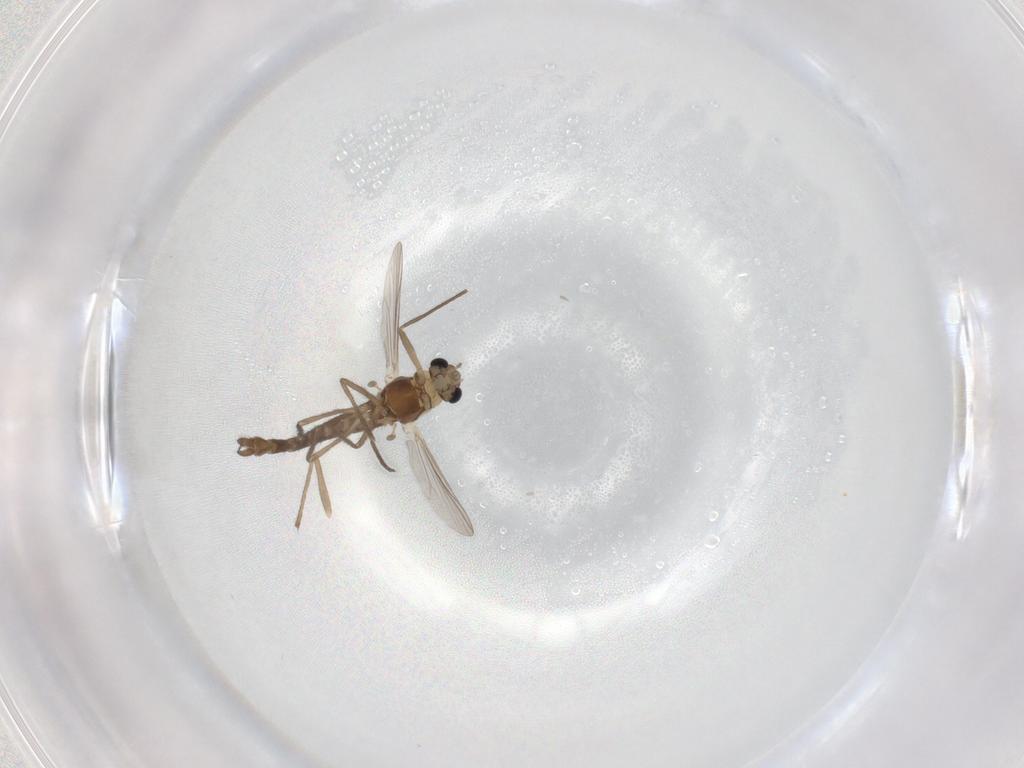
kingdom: Animalia
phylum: Arthropoda
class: Insecta
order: Diptera
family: Chironomidae
